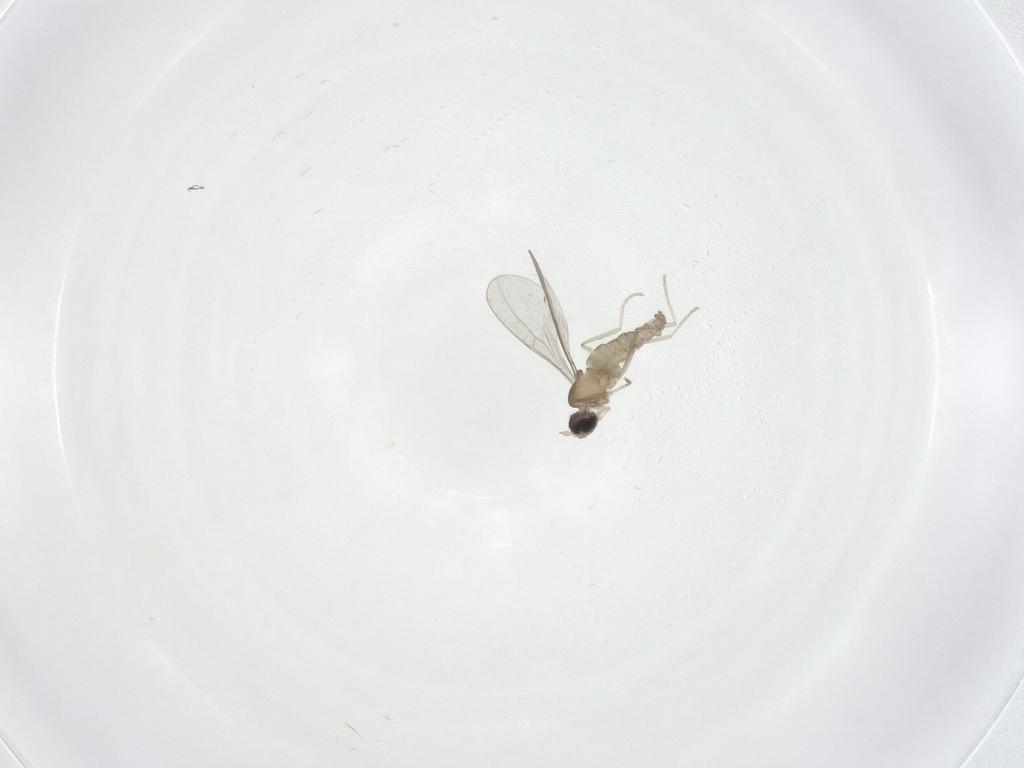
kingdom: Animalia
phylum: Arthropoda
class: Insecta
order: Diptera
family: Cecidomyiidae
